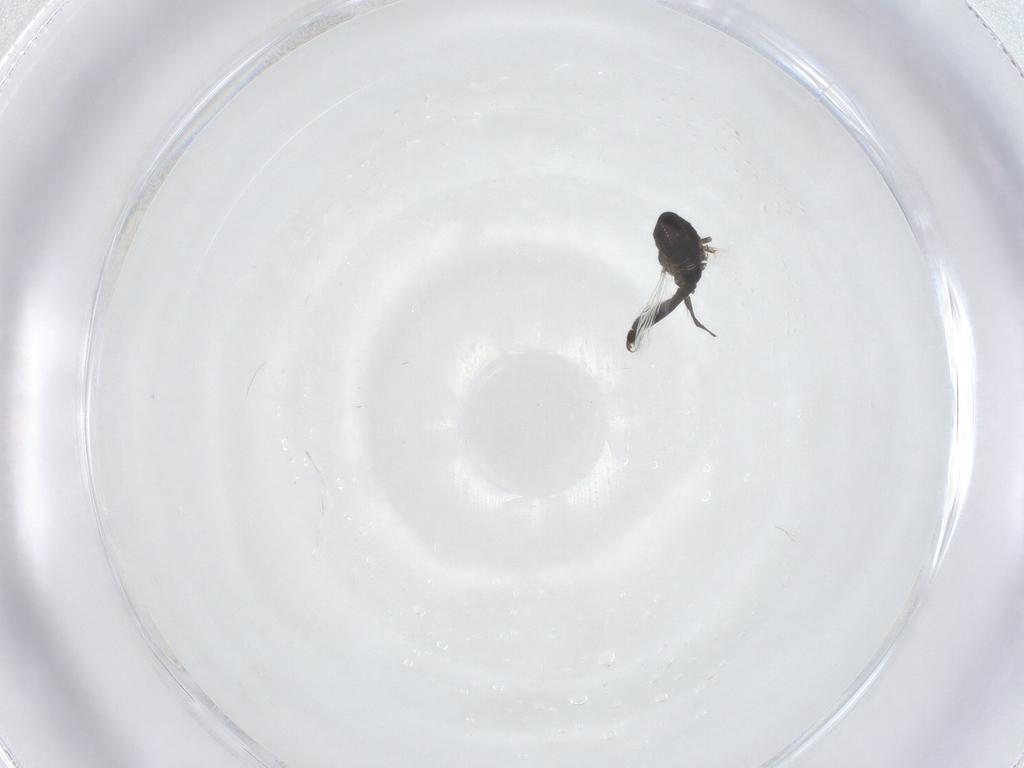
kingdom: Animalia
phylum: Arthropoda
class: Insecta
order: Diptera
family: Chironomidae
